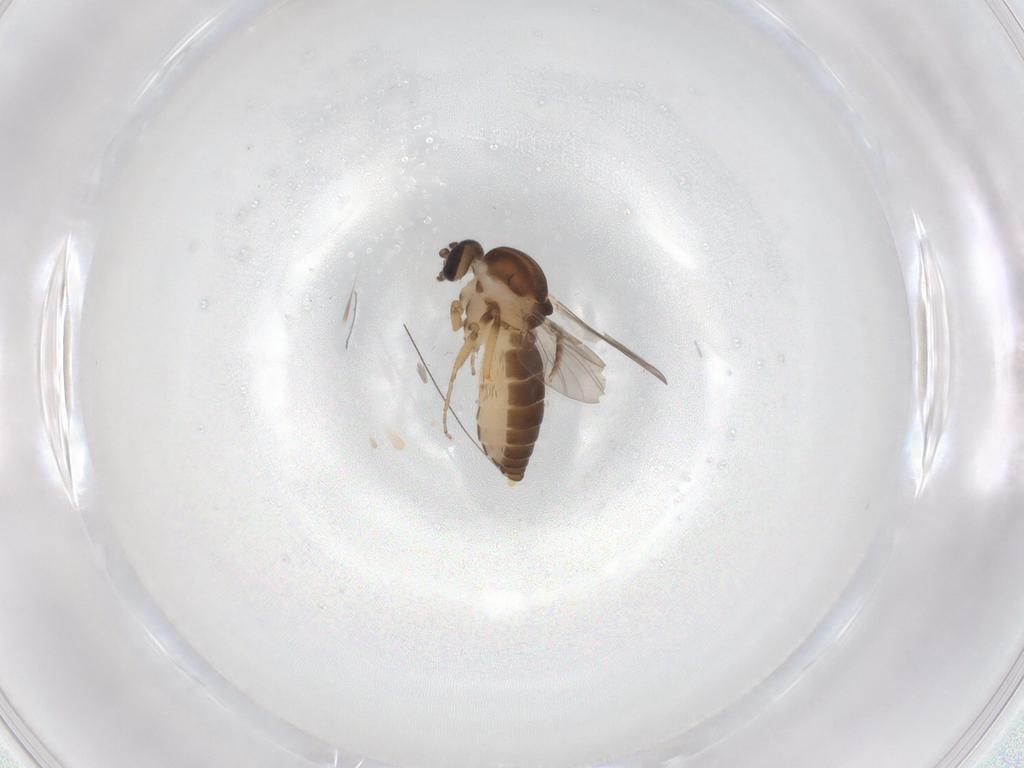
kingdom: Animalia
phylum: Arthropoda
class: Insecta
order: Diptera
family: Ceratopogonidae
